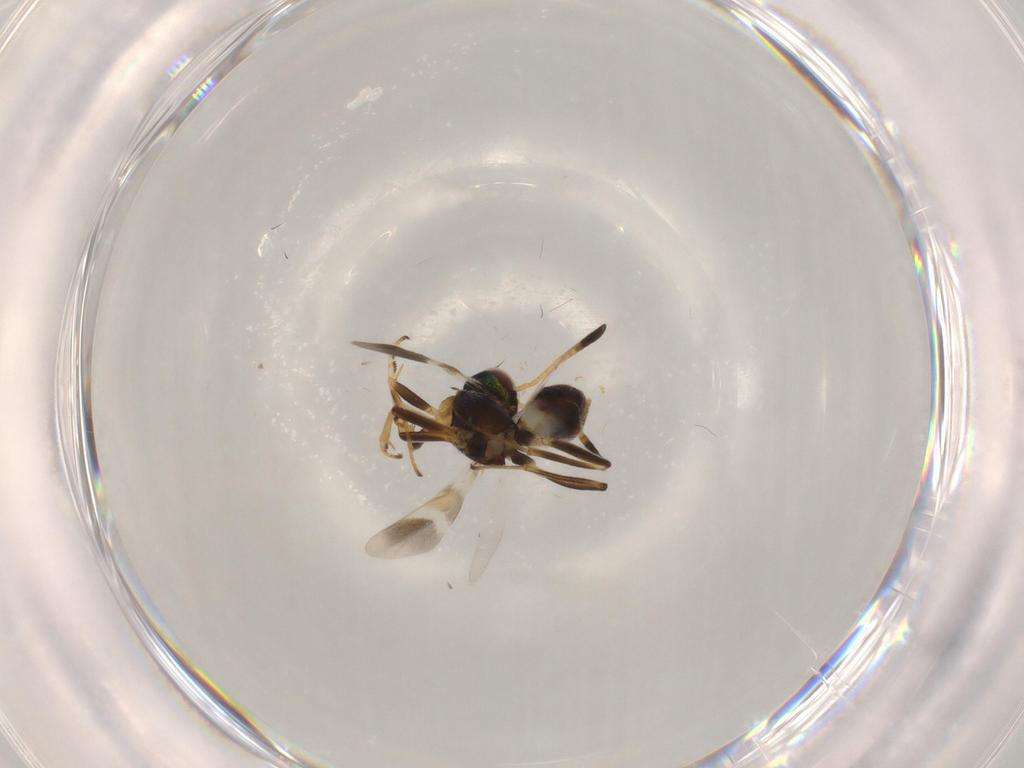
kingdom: Animalia
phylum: Arthropoda
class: Insecta
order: Hymenoptera
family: Eupelmidae
